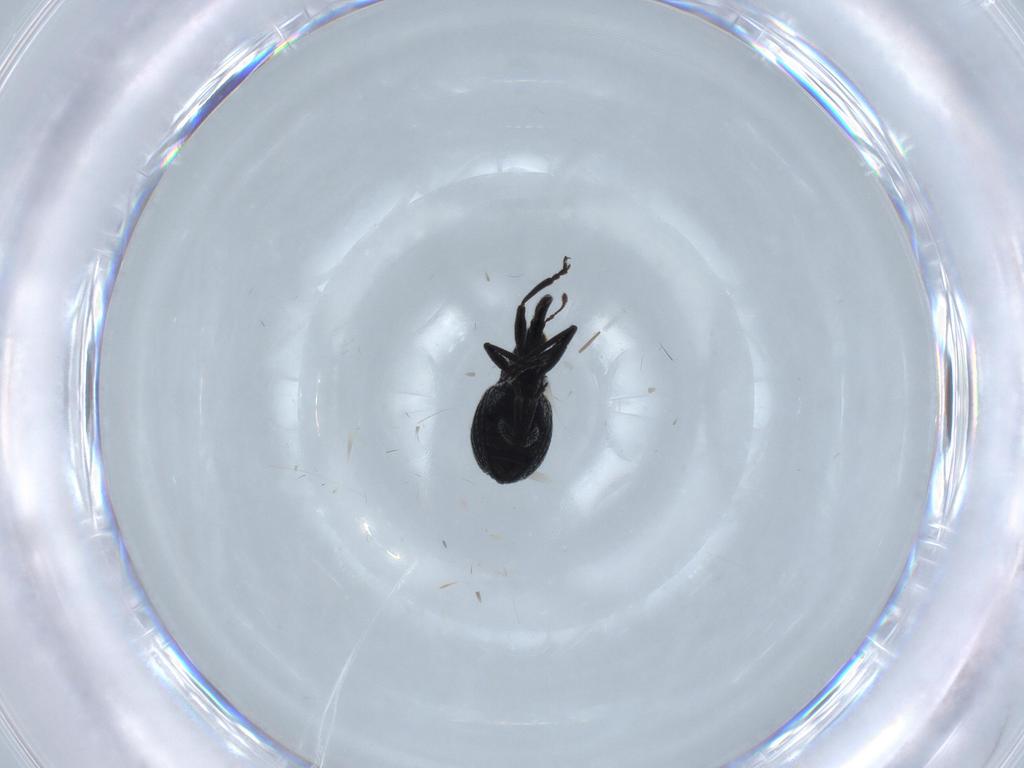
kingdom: Animalia
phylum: Arthropoda
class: Insecta
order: Coleoptera
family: Brentidae
